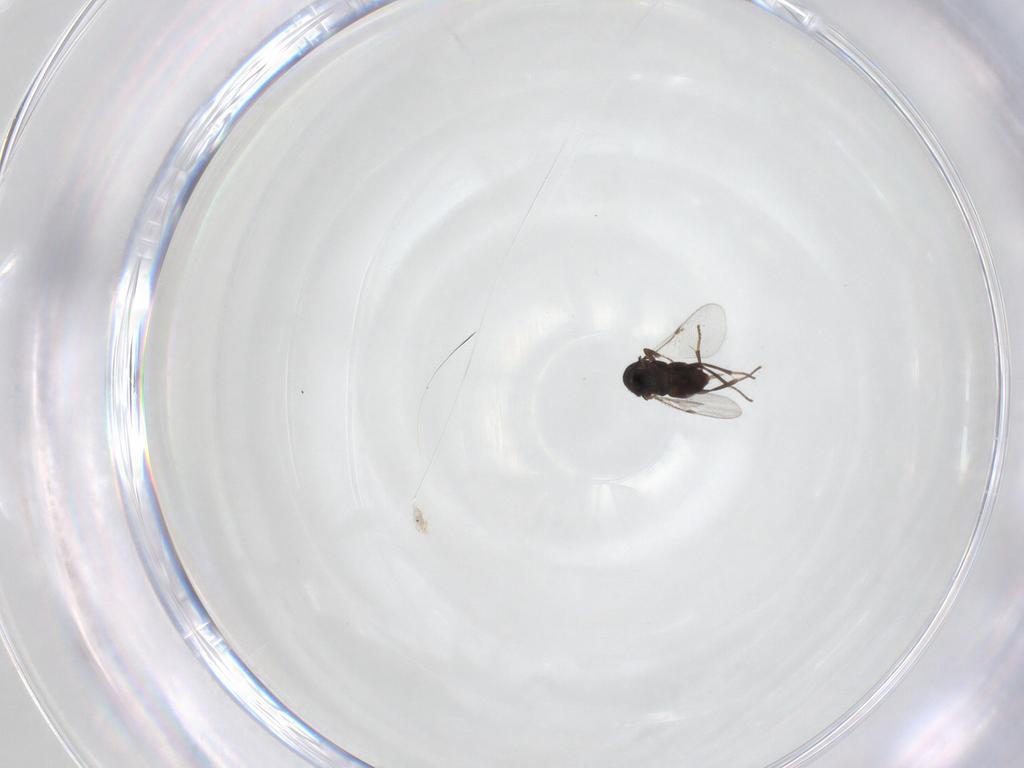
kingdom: Animalia
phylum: Arthropoda
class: Insecta
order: Hymenoptera
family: Encyrtidae
